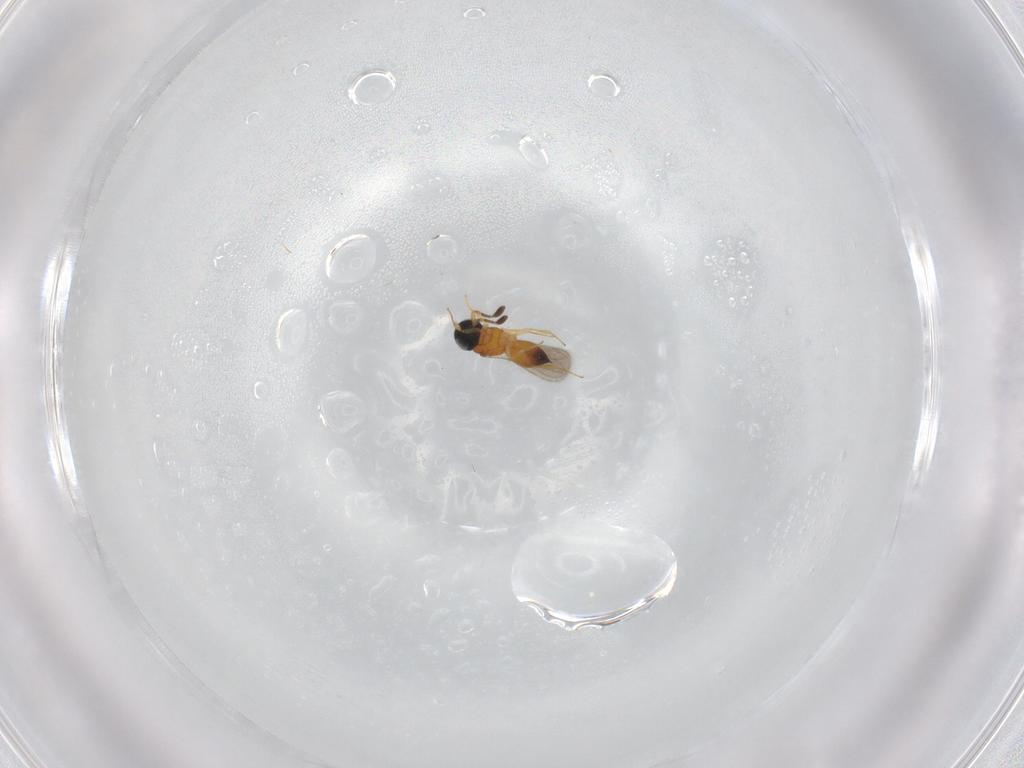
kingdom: Animalia
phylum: Arthropoda
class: Insecta
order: Hymenoptera
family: Scelionidae
